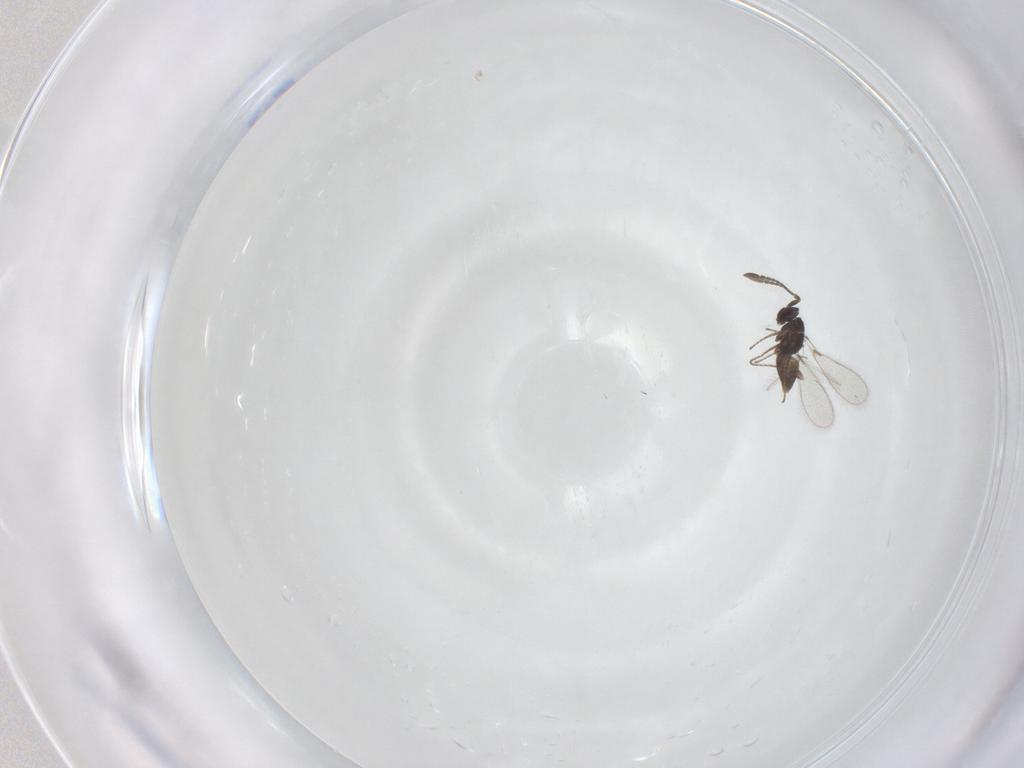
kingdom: Animalia
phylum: Arthropoda
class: Insecta
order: Hymenoptera
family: Mymaridae
